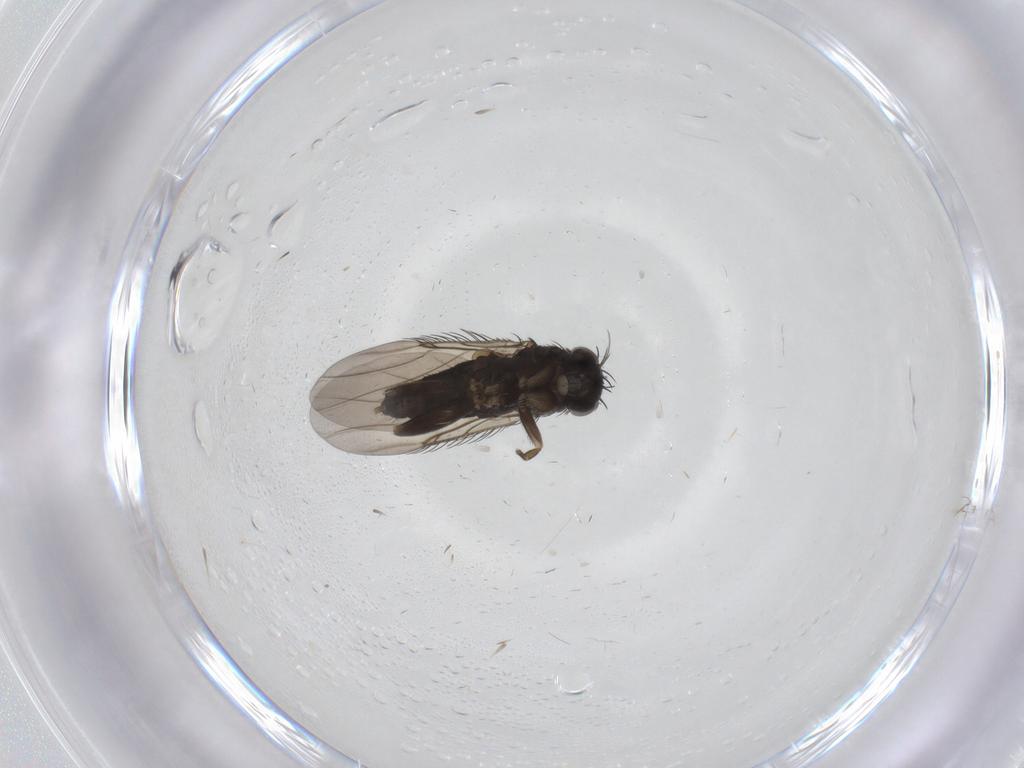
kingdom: Animalia
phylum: Arthropoda
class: Insecta
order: Diptera
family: Phoridae
